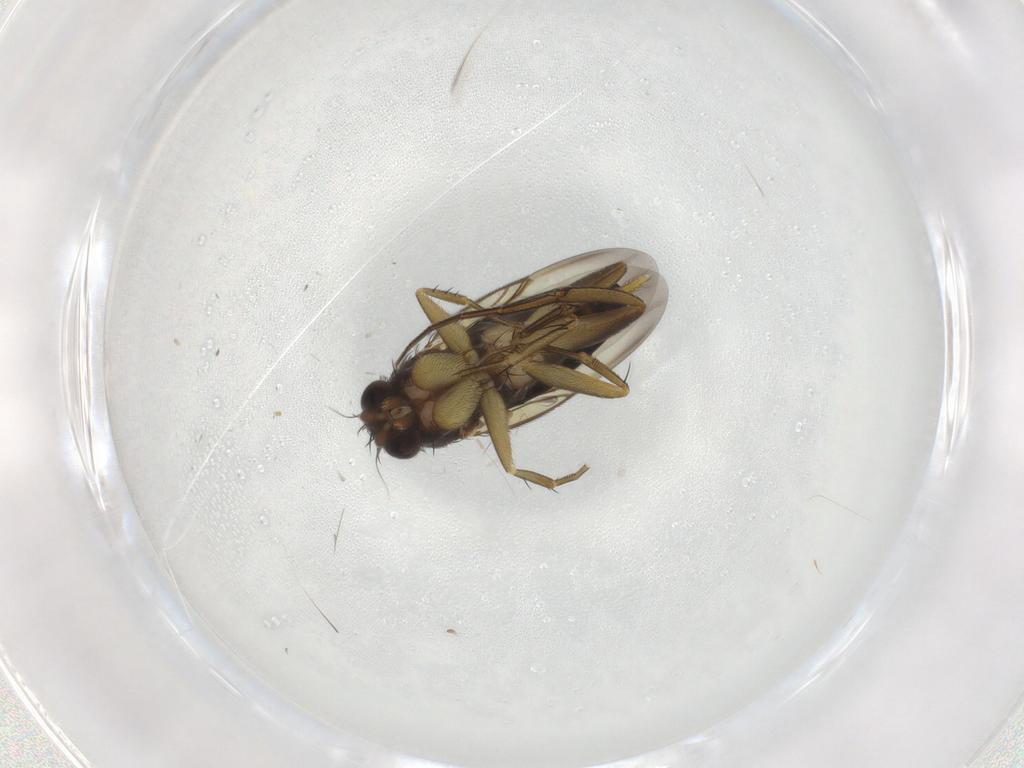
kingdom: Animalia
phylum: Arthropoda
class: Insecta
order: Diptera
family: Phoridae
